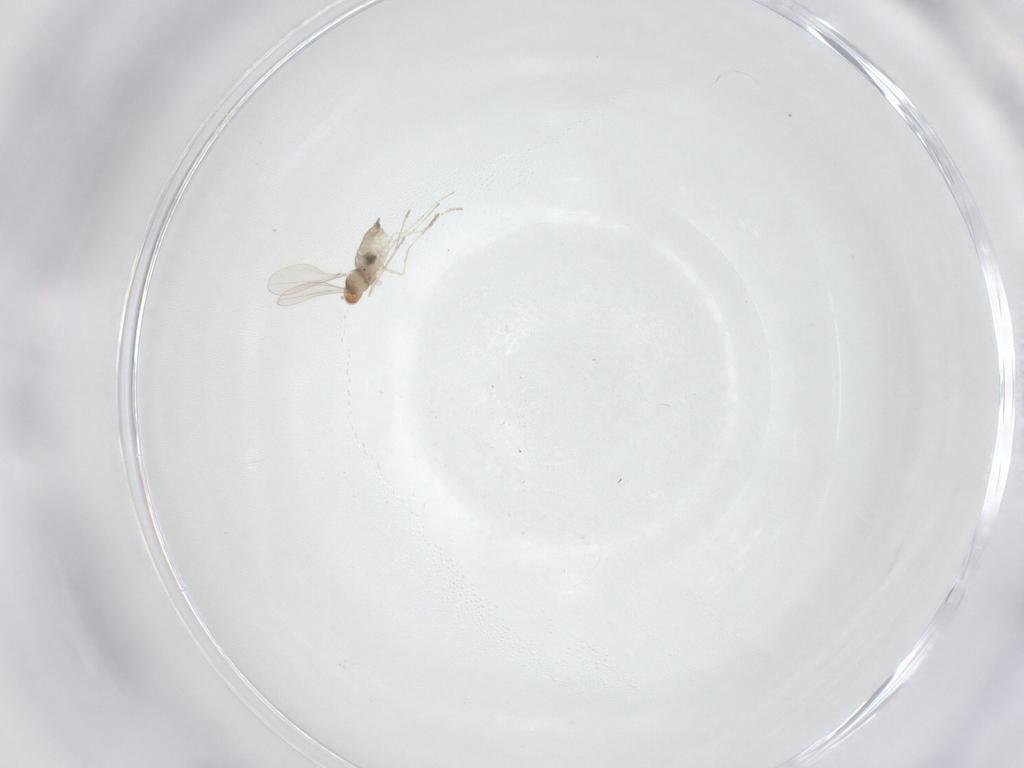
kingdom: Animalia
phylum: Arthropoda
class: Insecta
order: Diptera
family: Cecidomyiidae
